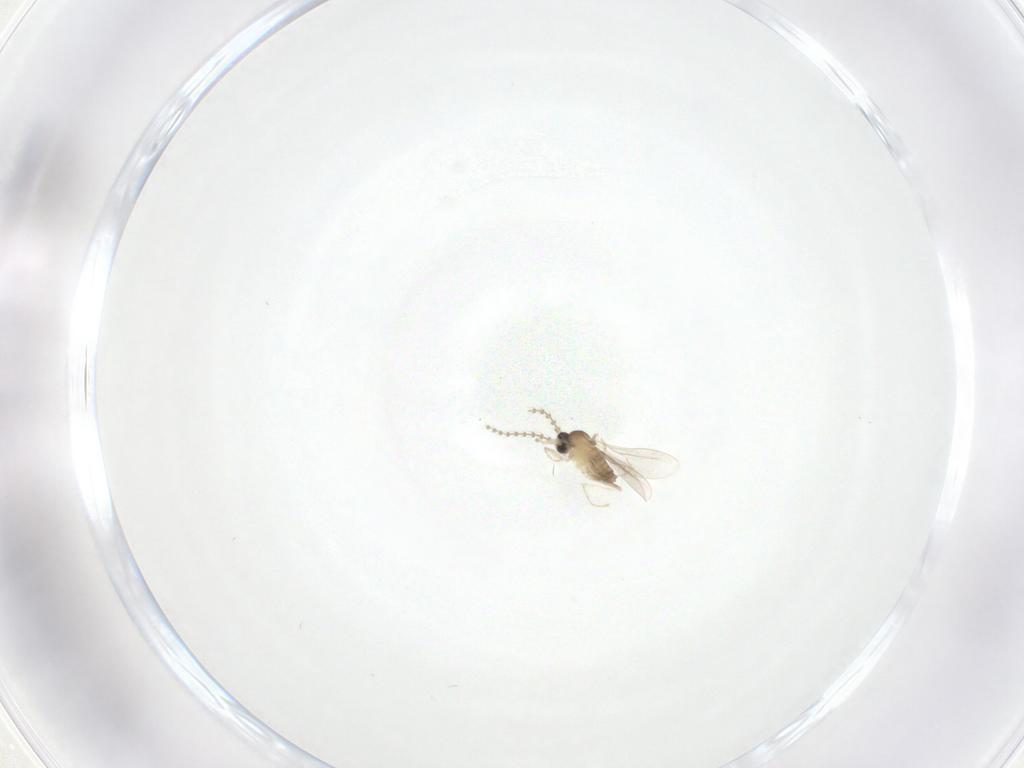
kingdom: Animalia
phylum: Arthropoda
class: Insecta
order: Diptera
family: Cecidomyiidae
